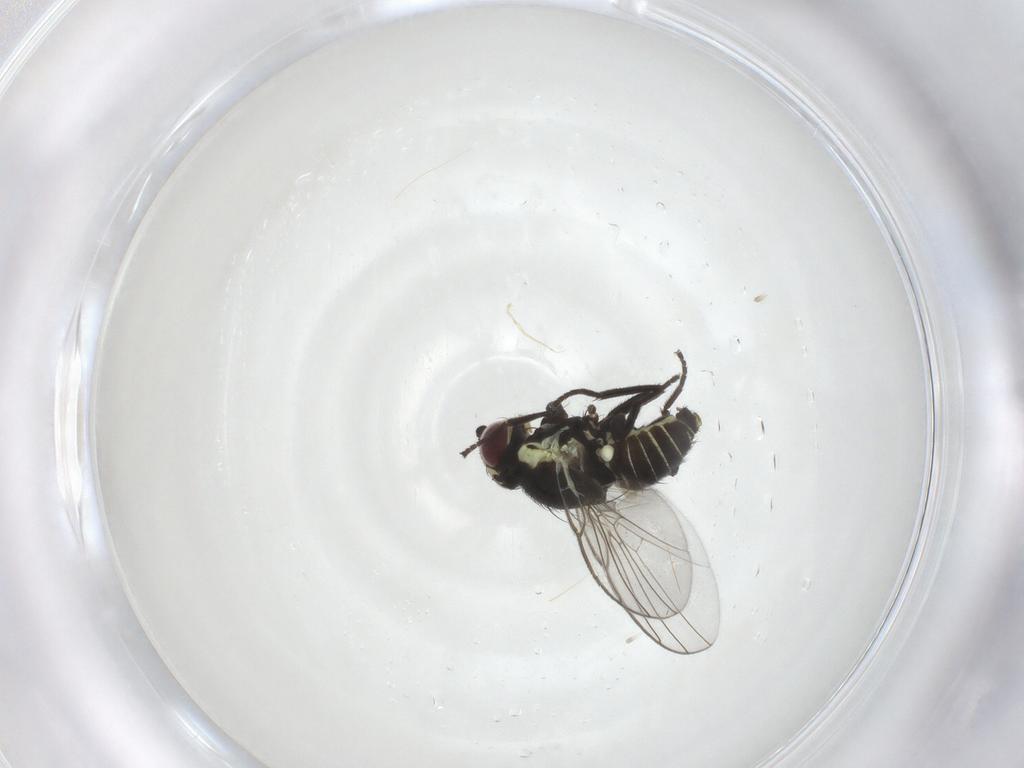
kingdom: Animalia
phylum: Arthropoda
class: Insecta
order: Diptera
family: Agromyzidae
